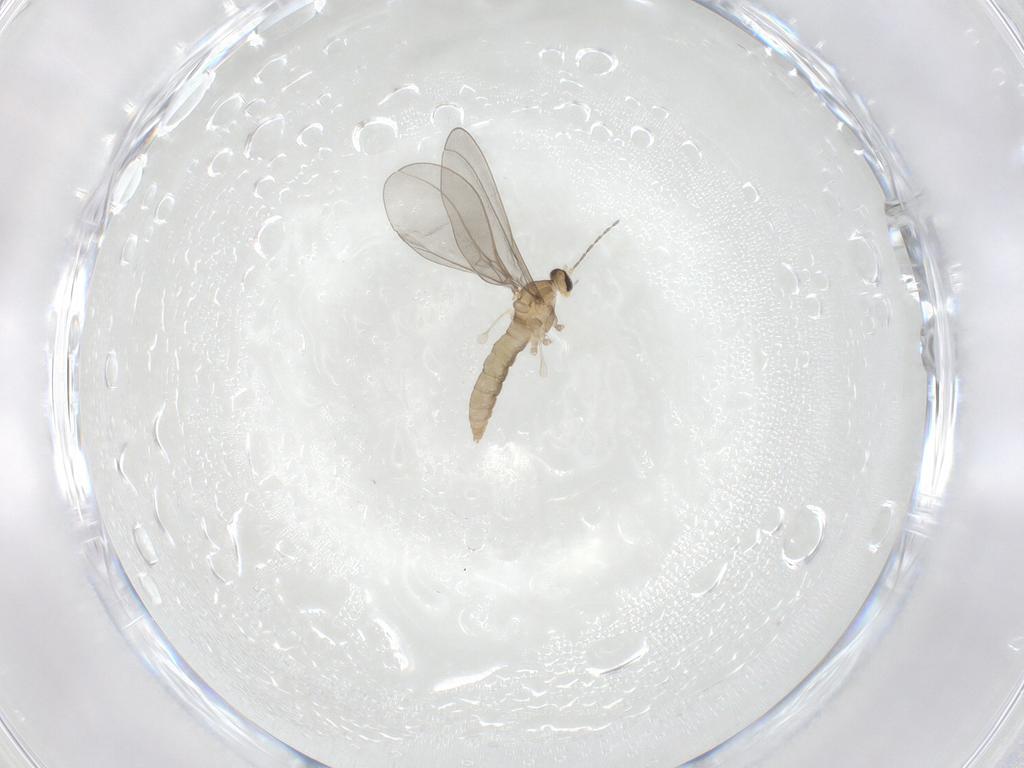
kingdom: Animalia
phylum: Arthropoda
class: Insecta
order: Diptera
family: Cecidomyiidae
